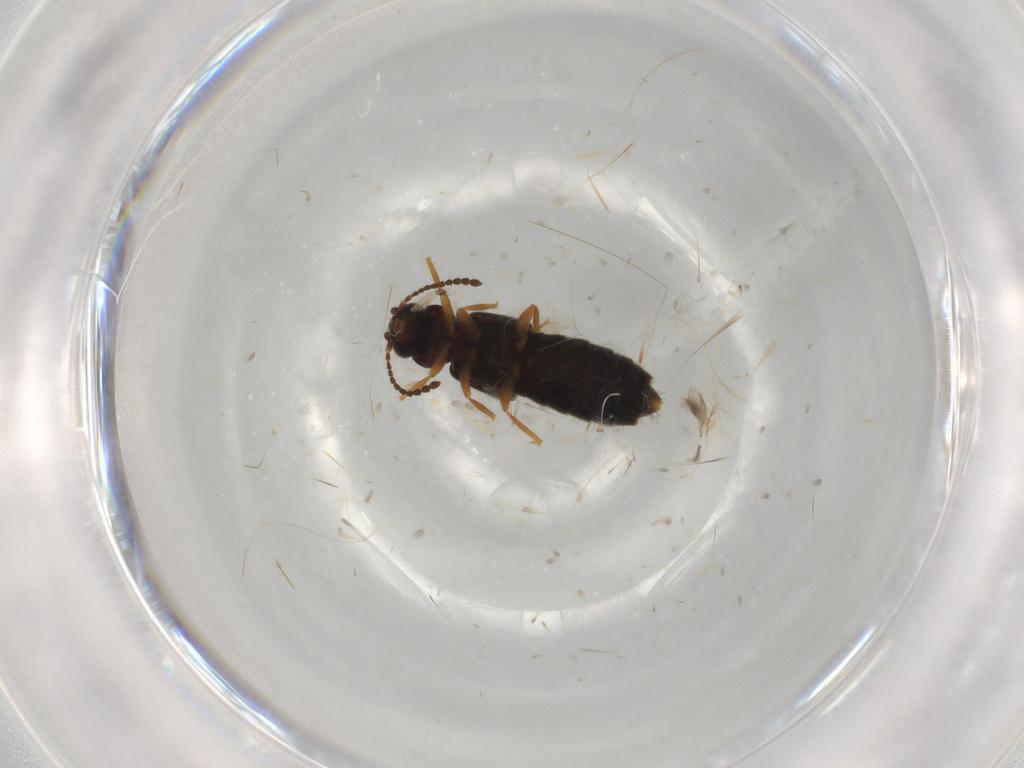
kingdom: Animalia
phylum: Arthropoda
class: Insecta
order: Coleoptera
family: Staphylinidae
